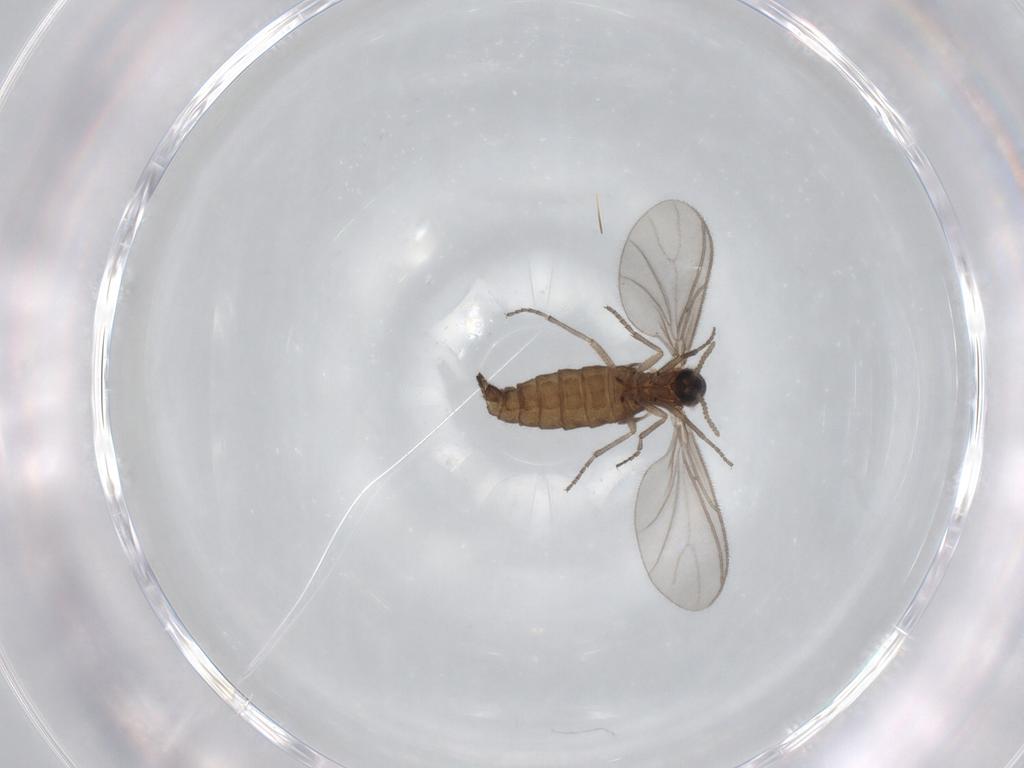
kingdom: Animalia
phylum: Arthropoda
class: Insecta
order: Diptera
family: Sciaridae
